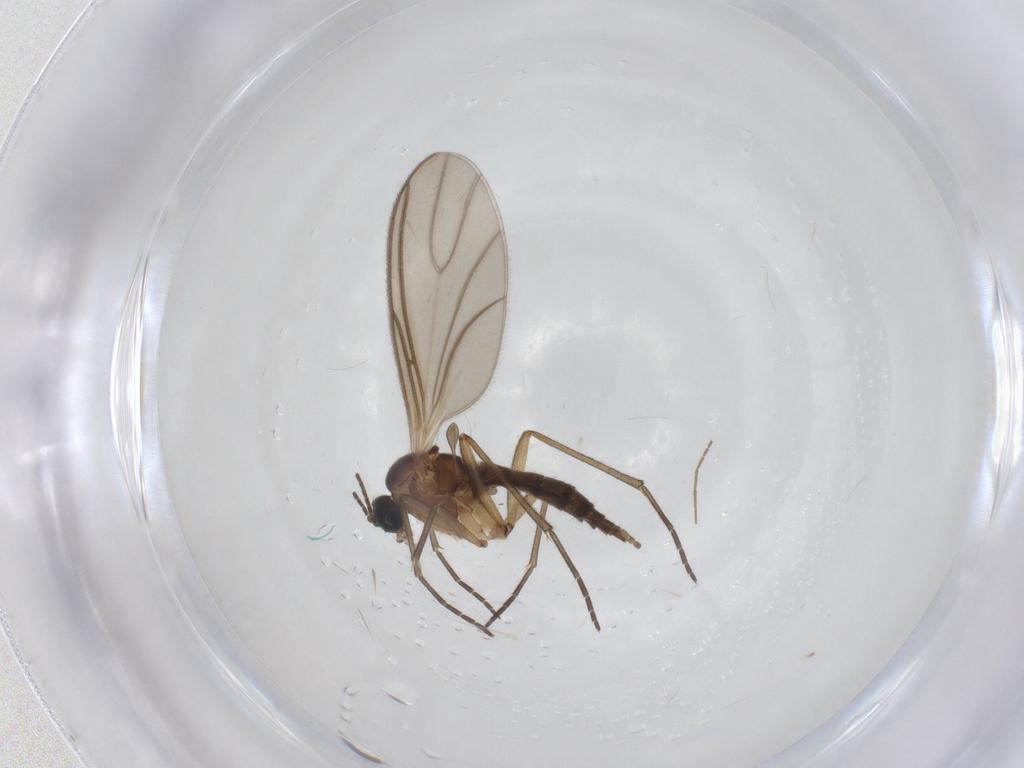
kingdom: Animalia
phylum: Arthropoda
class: Insecta
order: Diptera
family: Sciaridae
